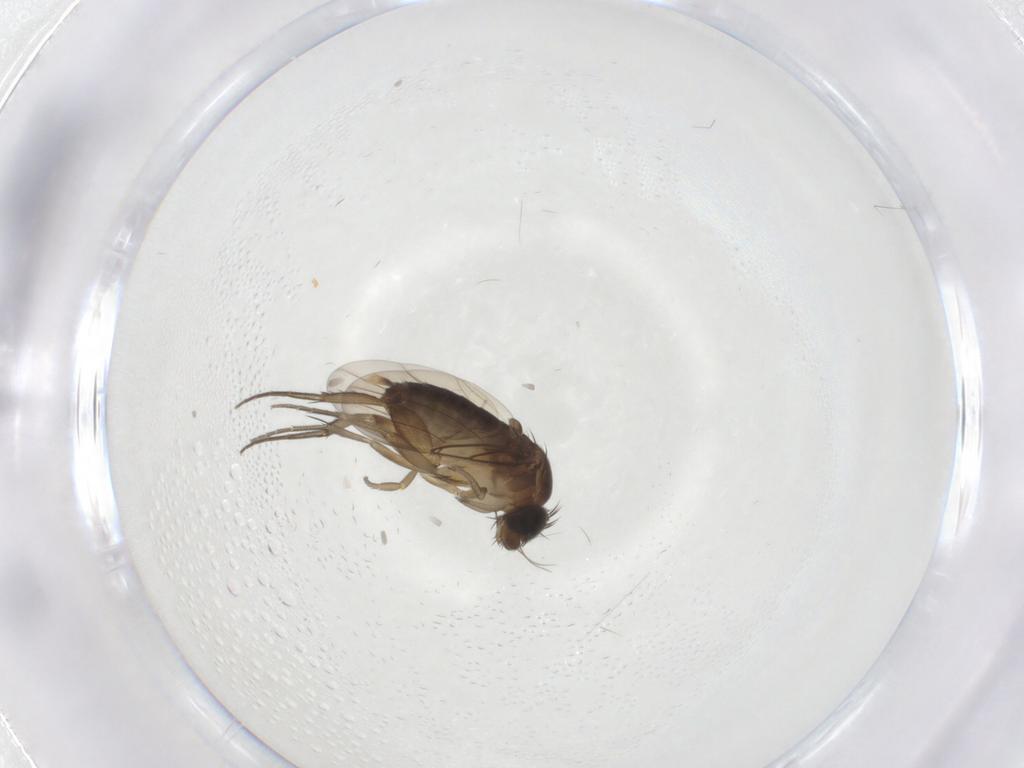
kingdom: Animalia
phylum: Arthropoda
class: Insecta
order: Diptera
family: Phoridae
